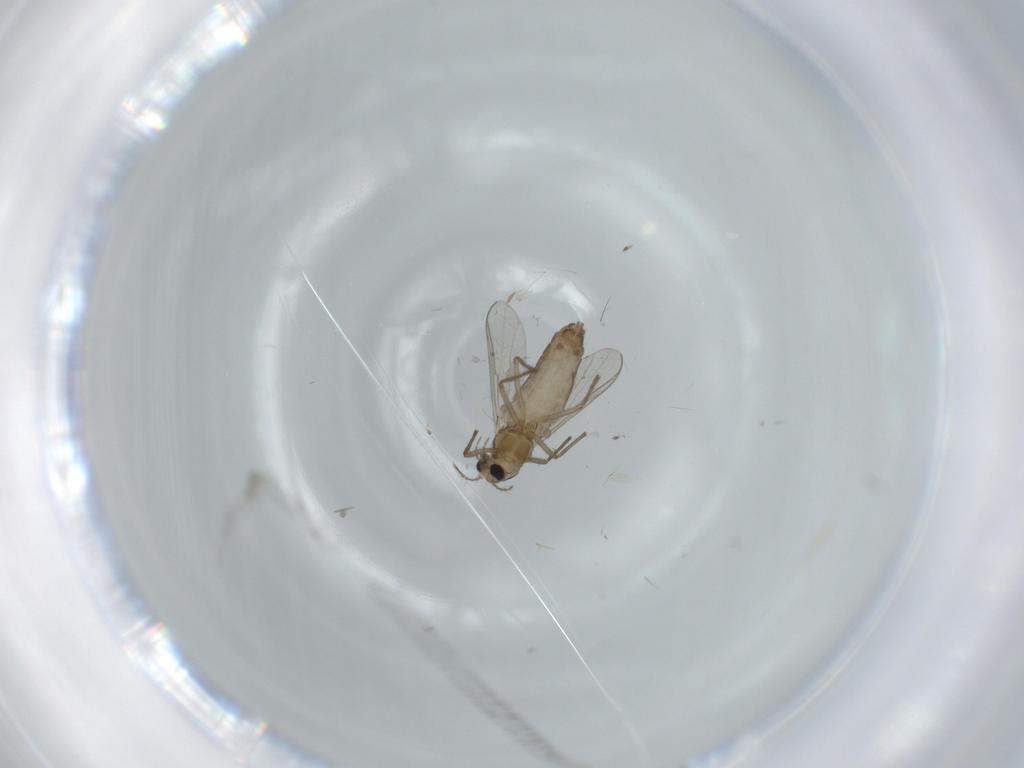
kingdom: Animalia
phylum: Arthropoda
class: Insecta
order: Diptera
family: Chironomidae
